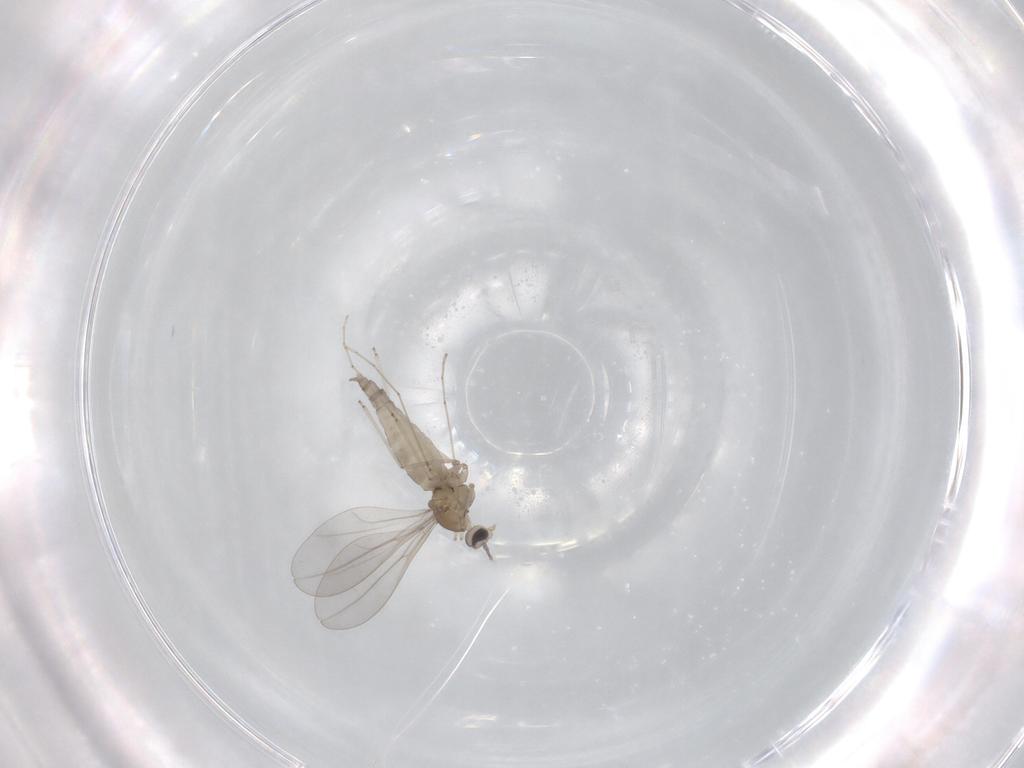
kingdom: Animalia
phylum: Arthropoda
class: Insecta
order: Diptera
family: Cecidomyiidae
